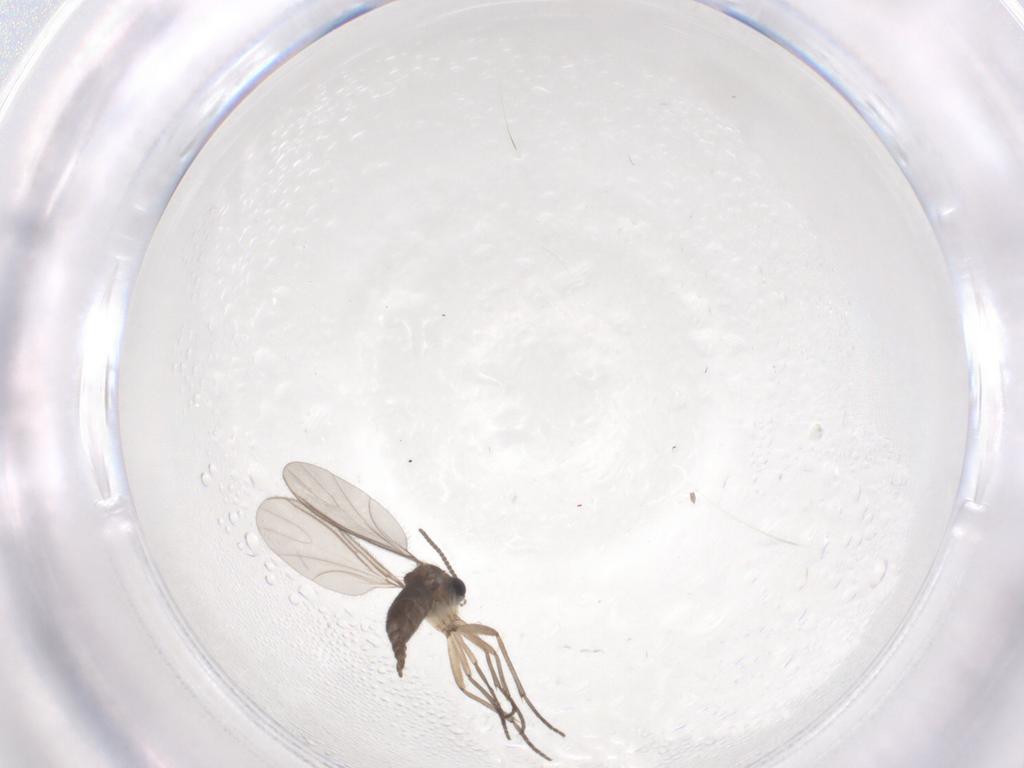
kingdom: Animalia
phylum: Arthropoda
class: Insecta
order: Diptera
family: Sciaridae
